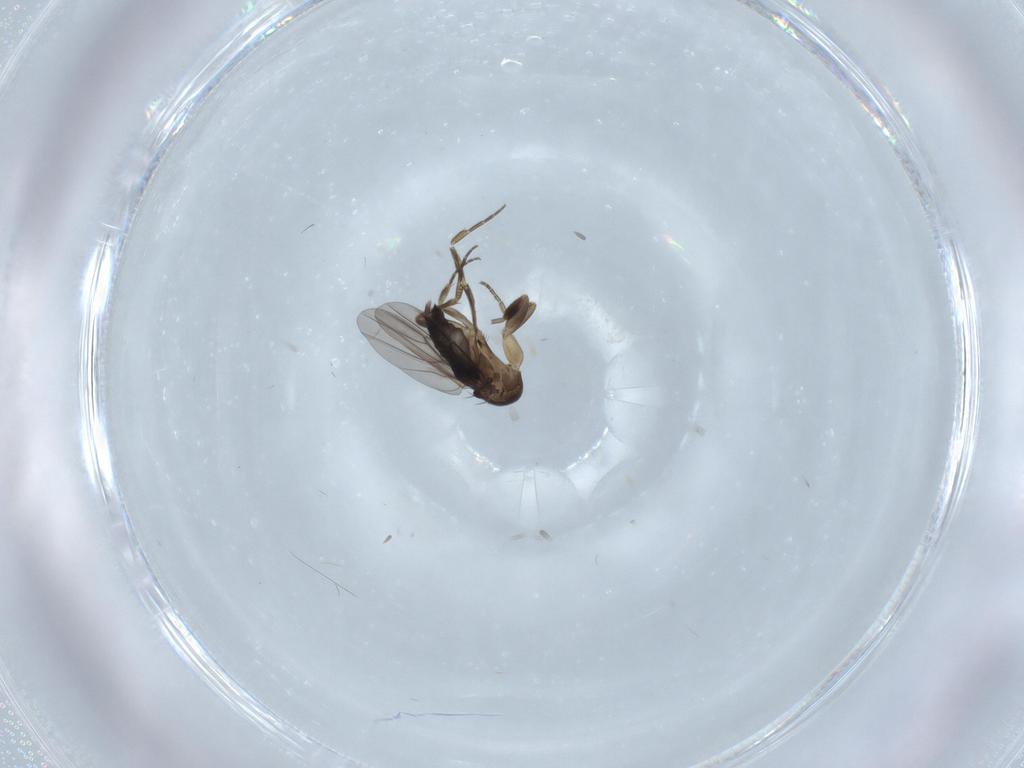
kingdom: Animalia
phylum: Arthropoda
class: Insecta
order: Diptera
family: Phoridae
